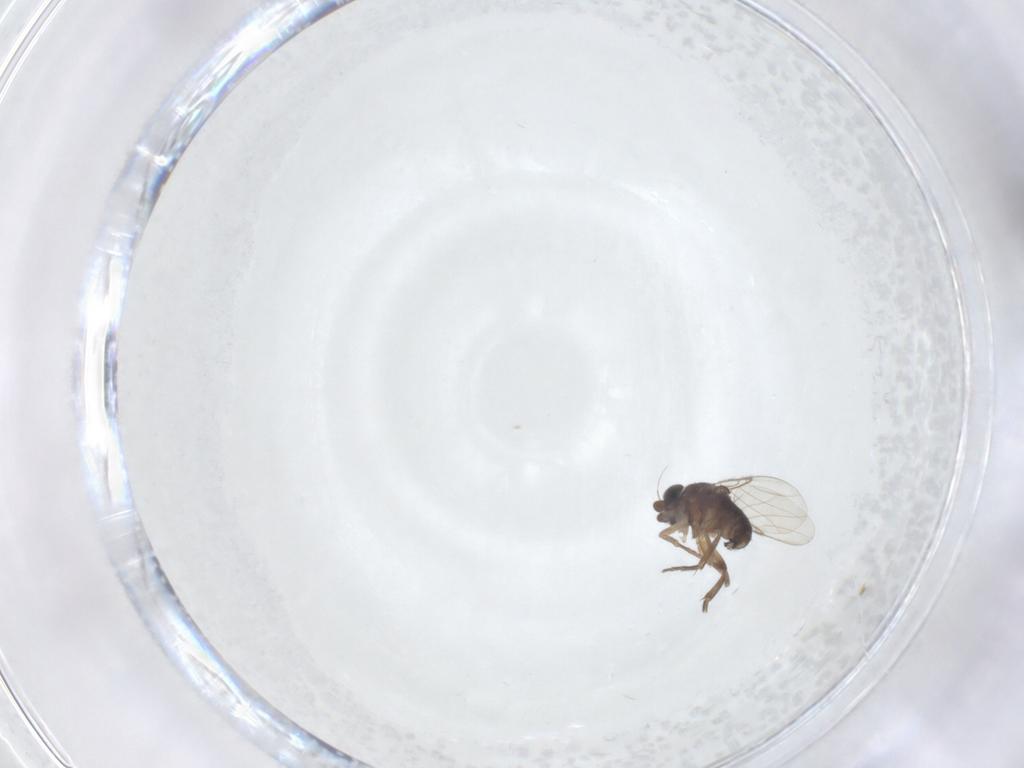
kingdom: Animalia
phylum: Arthropoda
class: Insecta
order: Diptera
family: Phoridae
